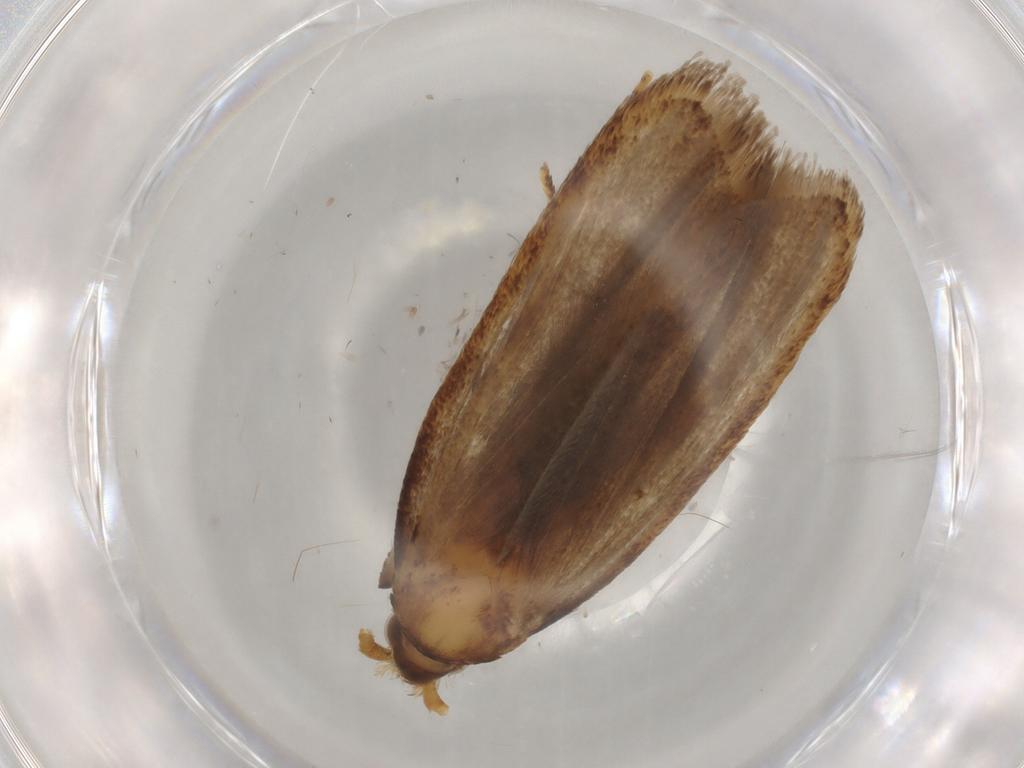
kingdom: Animalia
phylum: Arthropoda
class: Insecta
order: Lepidoptera
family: Lecithoceridae
